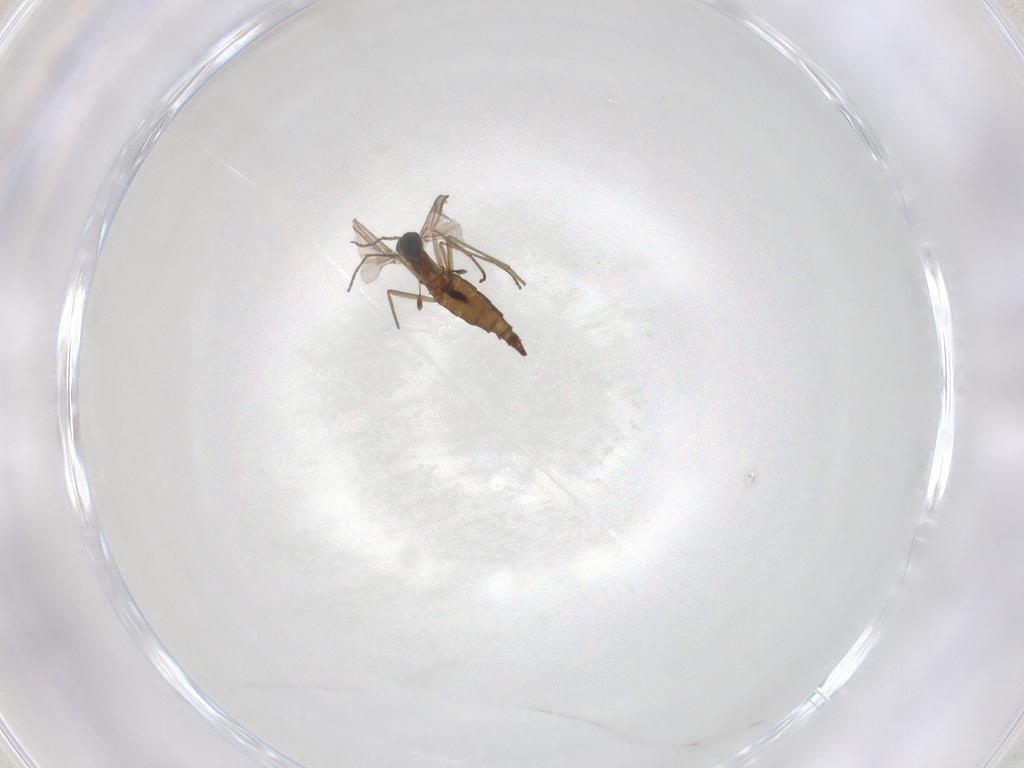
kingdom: Animalia
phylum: Arthropoda
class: Insecta
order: Diptera
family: Sciaridae
